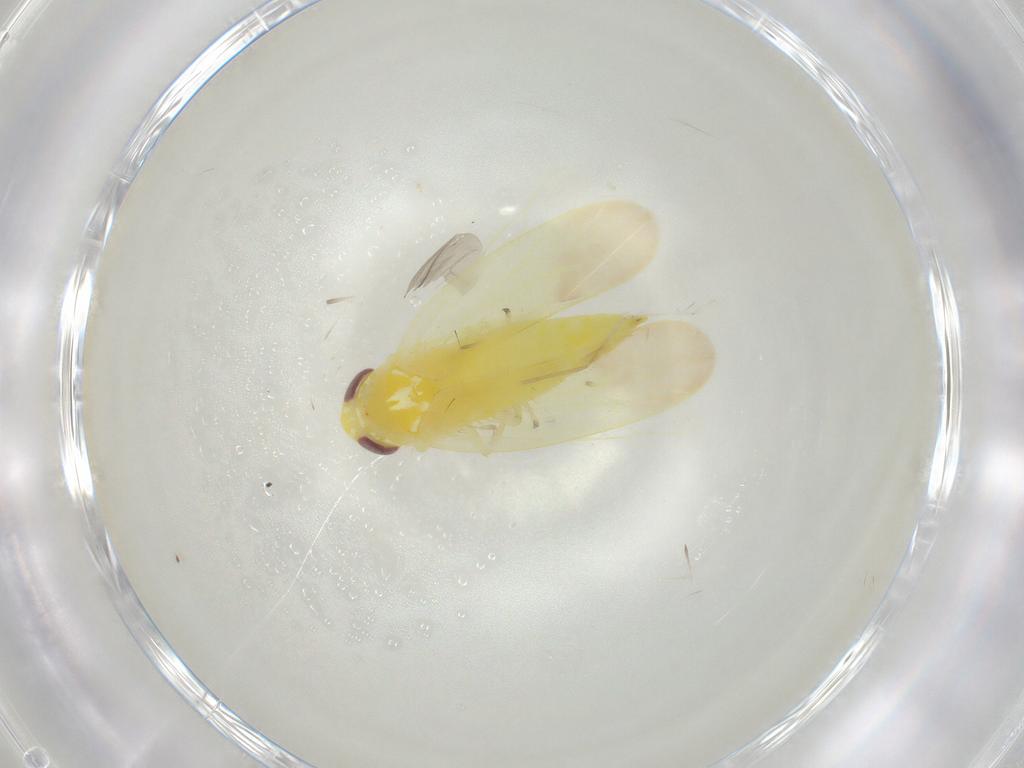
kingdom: Animalia
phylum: Arthropoda
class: Insecta
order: Hemiptera
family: Cicadellidae
